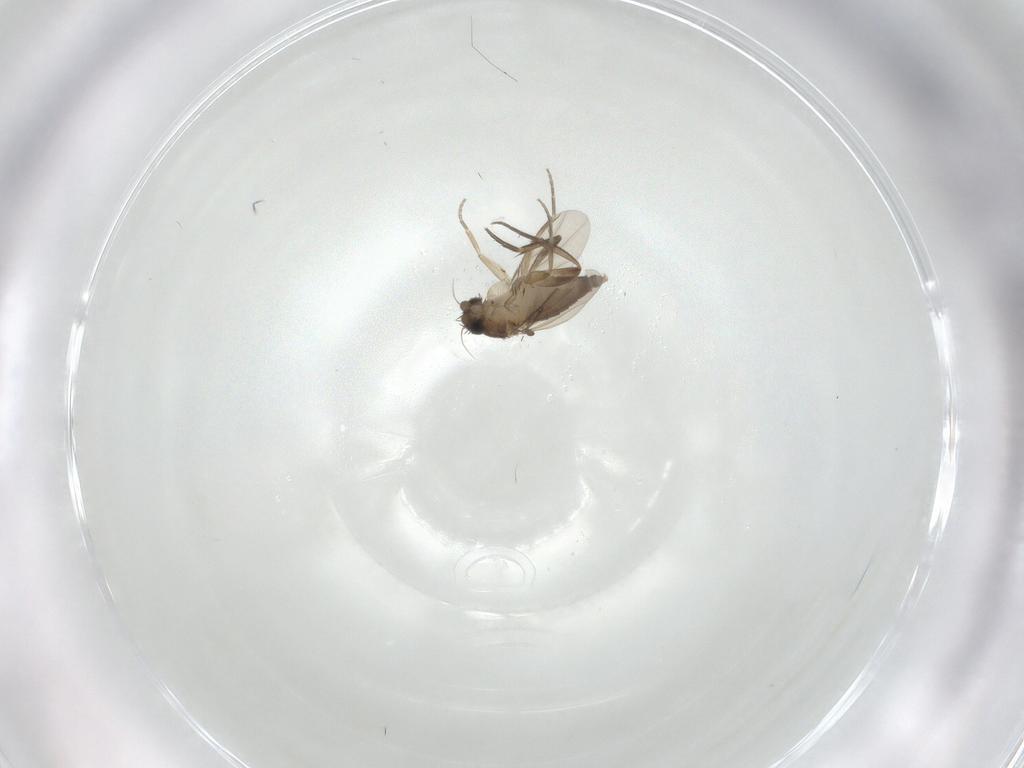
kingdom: Animalia
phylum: Arthropoda
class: Insecta
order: Diptera
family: Phoridae
